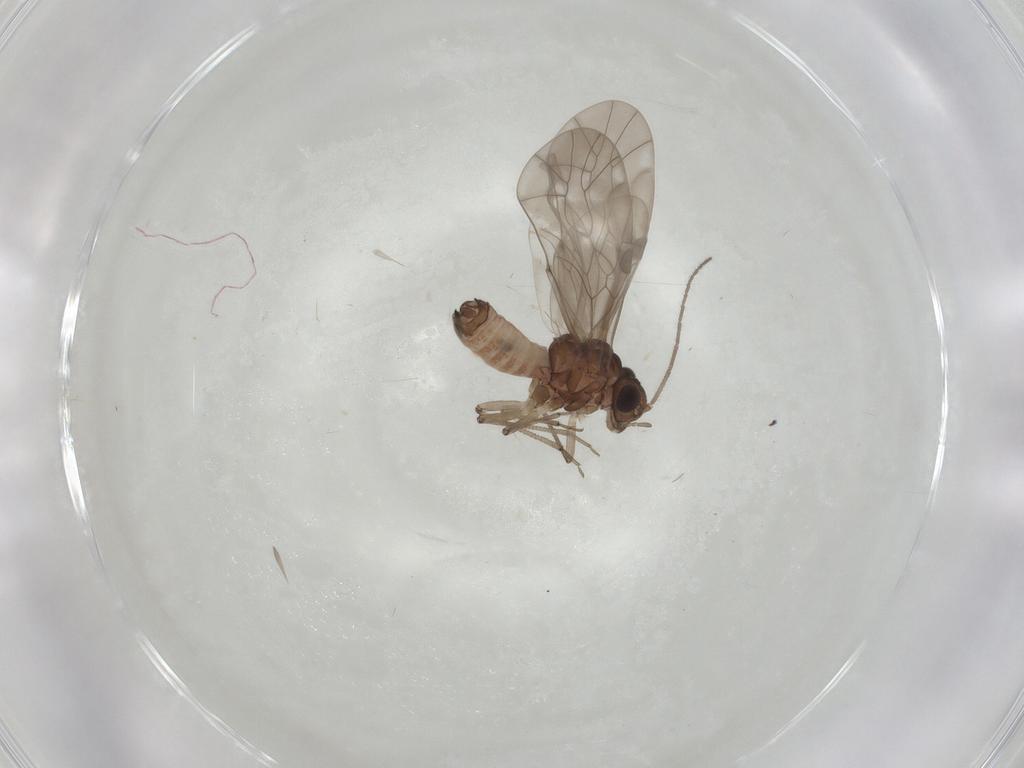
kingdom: Animalia
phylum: Arthropoda
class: Insecta
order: Psocodea
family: Peripsocidae
